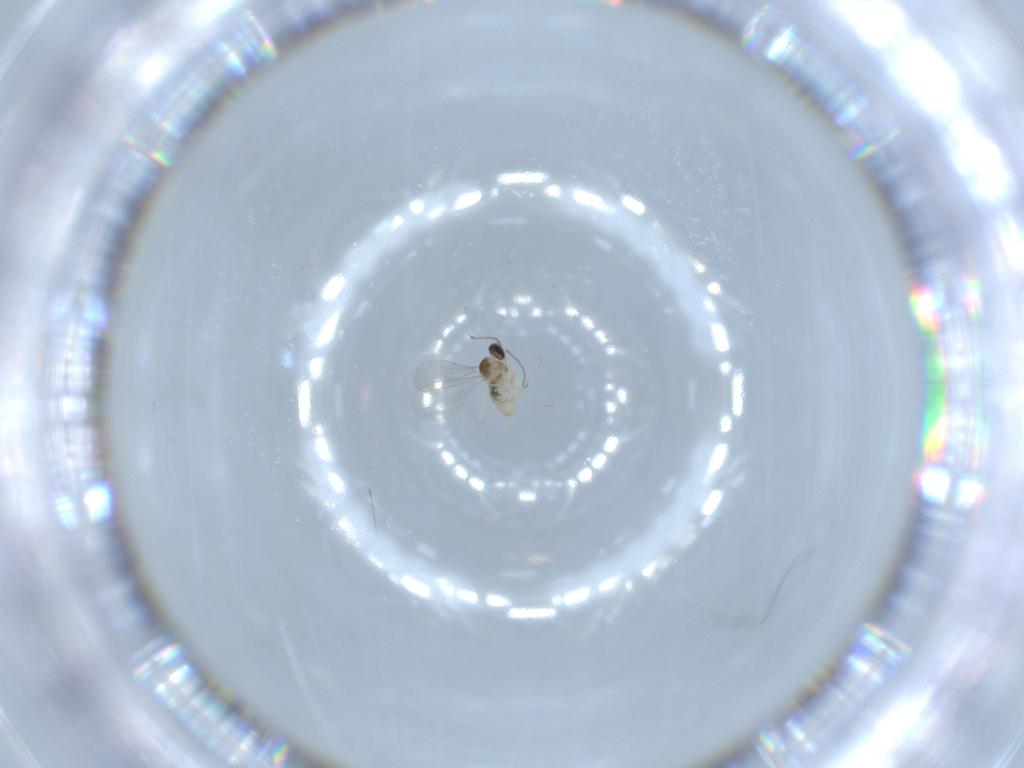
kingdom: Animalia
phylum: Arthropoda
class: Insecta
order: Diptera
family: Cecidomyiidae
